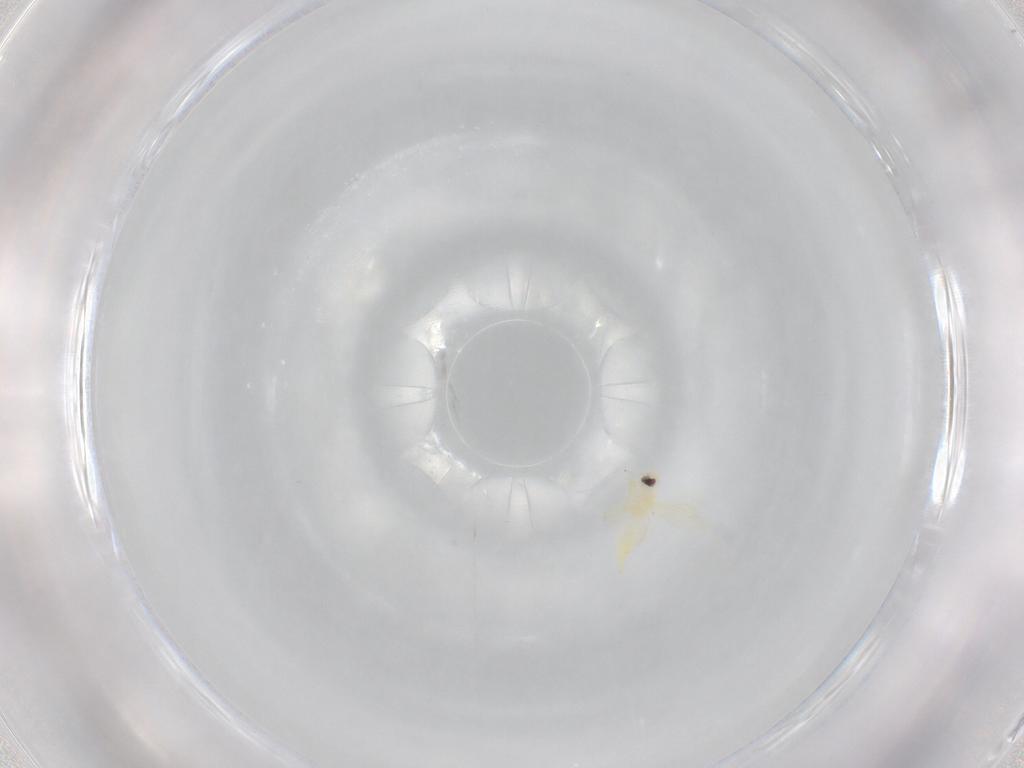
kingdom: Animalia
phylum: Arthropoda
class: Insecta
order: Hemiptera
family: Aleyrodidae
